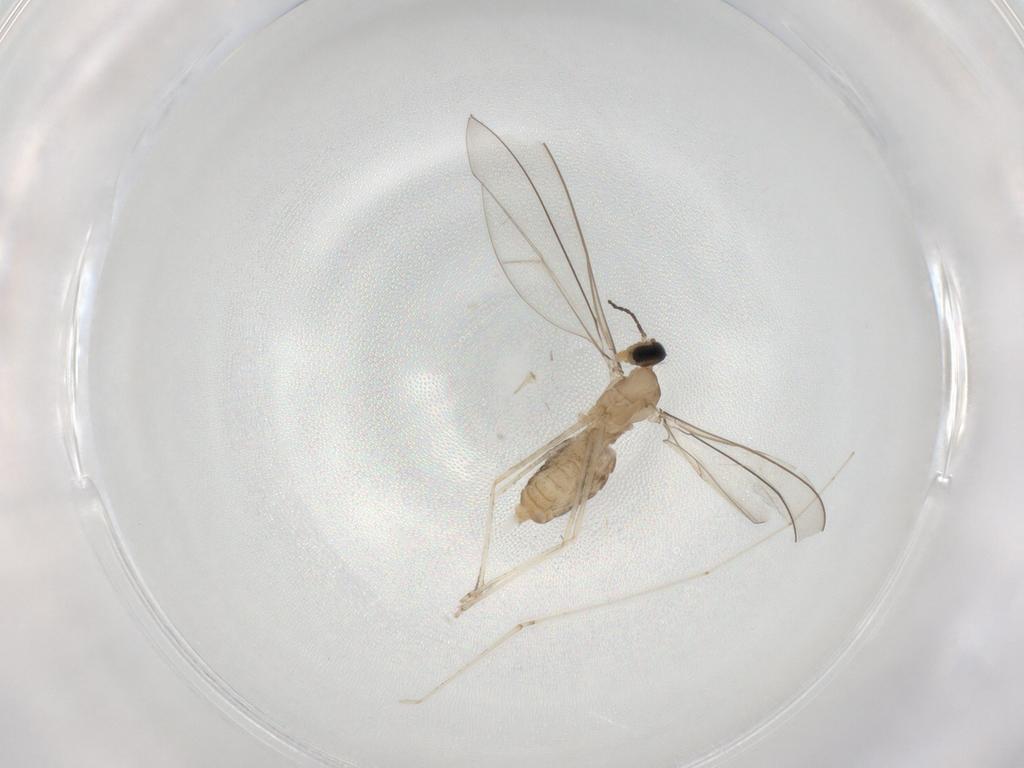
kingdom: Animalia
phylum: Arthropoda
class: Insecta
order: Diptera
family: Cecidomyiidae
